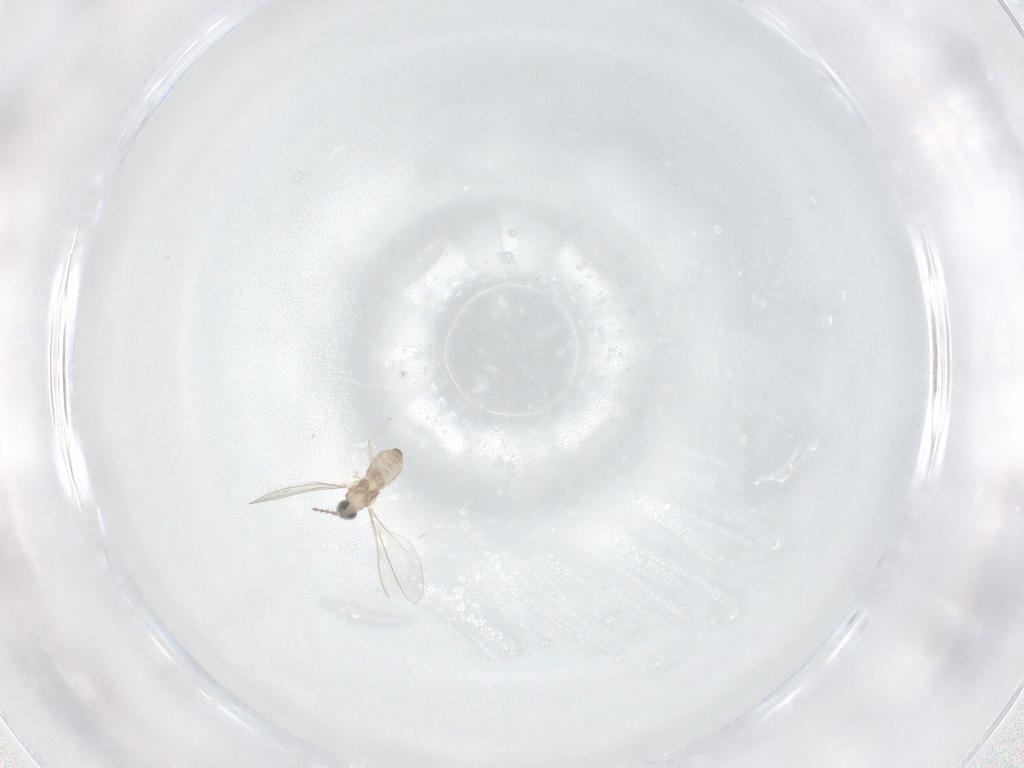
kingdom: Animalia
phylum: Arthropoda
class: Insecta
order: Diptera
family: Cecidomyiidae
